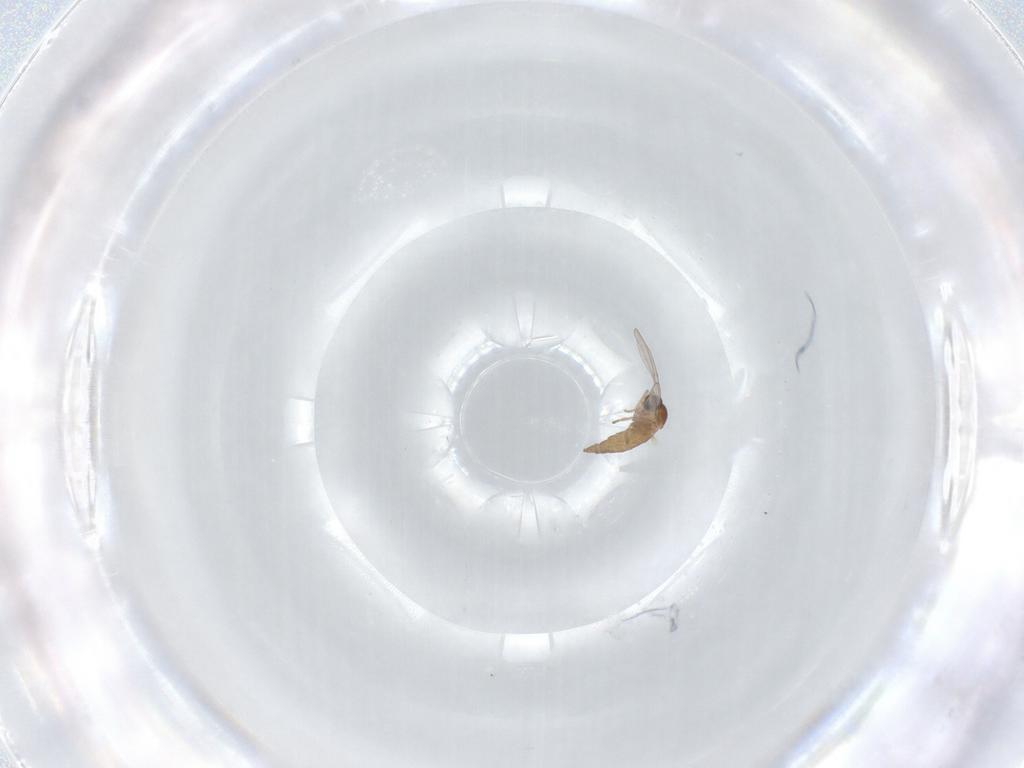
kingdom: Animalia
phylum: Arthropoda
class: Insecta
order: Diptera
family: Cecidomyiidae
